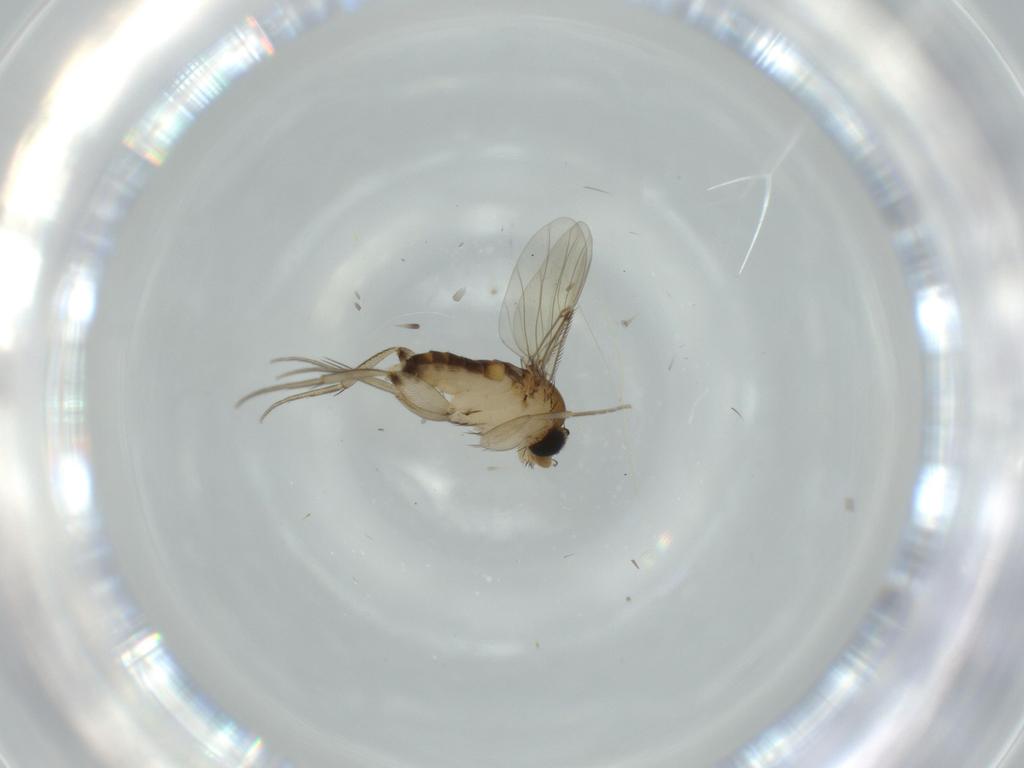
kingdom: Animalia
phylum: Arthropoda
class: Insecta
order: Diptera
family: Phoridae
